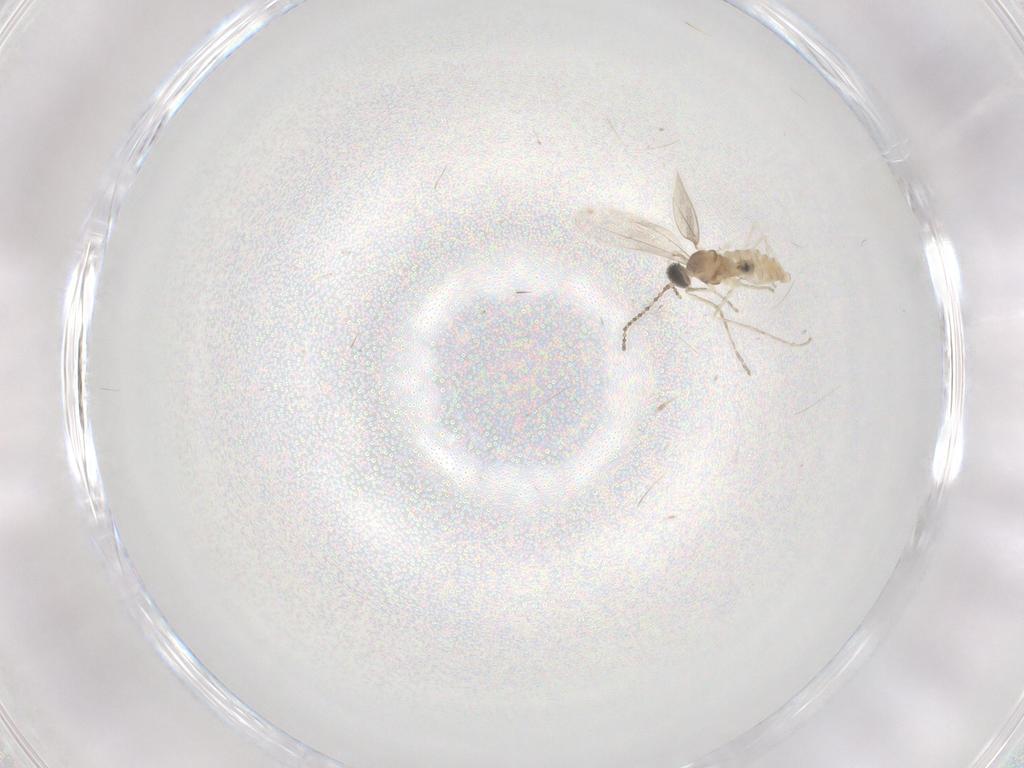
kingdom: Animalia
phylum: Arthropoda
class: Insecta
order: Diptera
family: Cecidomyiidae
